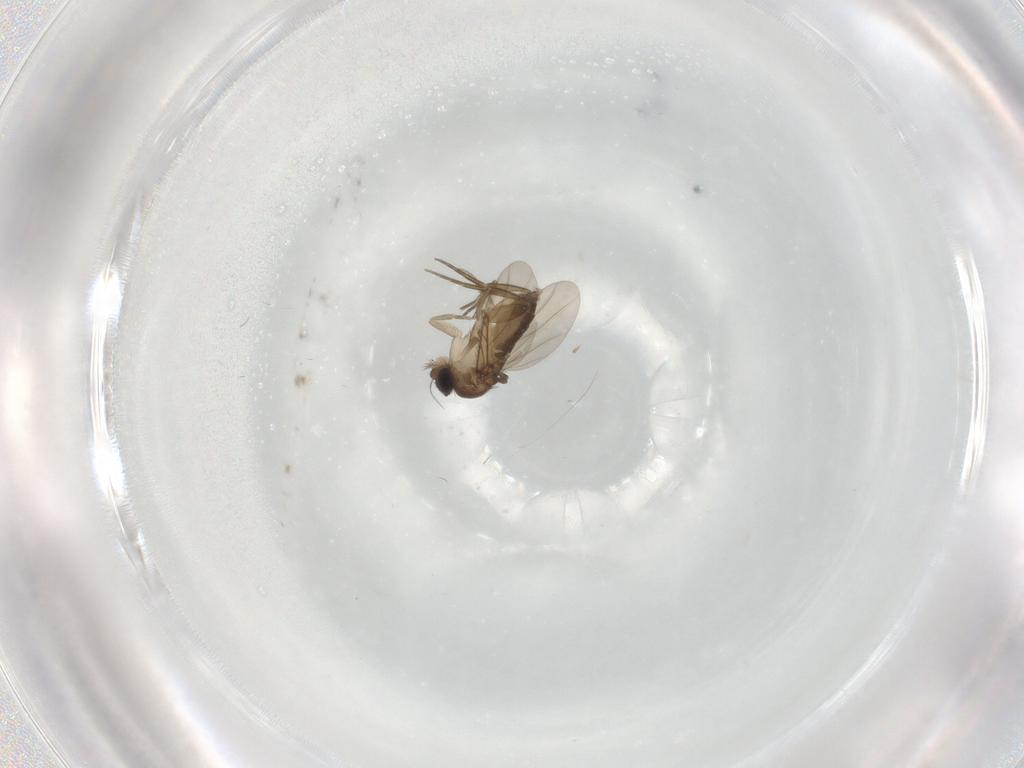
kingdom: Animalia
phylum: Arthropoda
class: Insecta
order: Diptera
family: Phoridae
